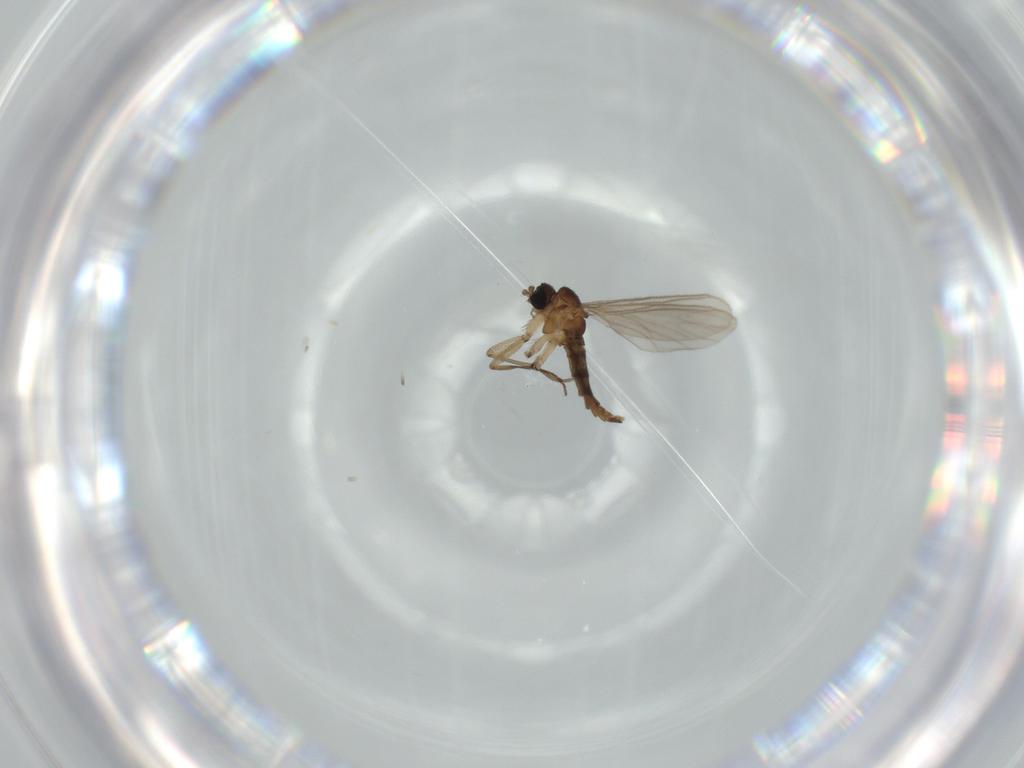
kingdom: Animalia
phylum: Arthropoda
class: Insecta
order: Diptera
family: Sciaridae
